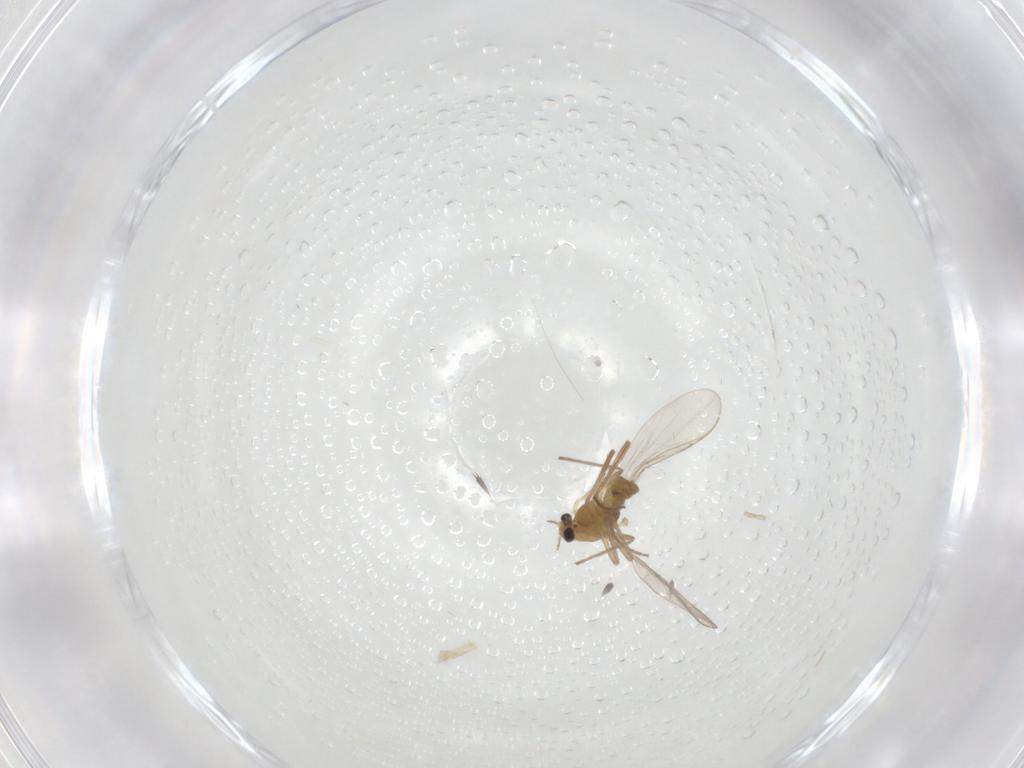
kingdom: Animalia
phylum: Arthropoda
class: Insecta
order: Diptera
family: Chironomidae
